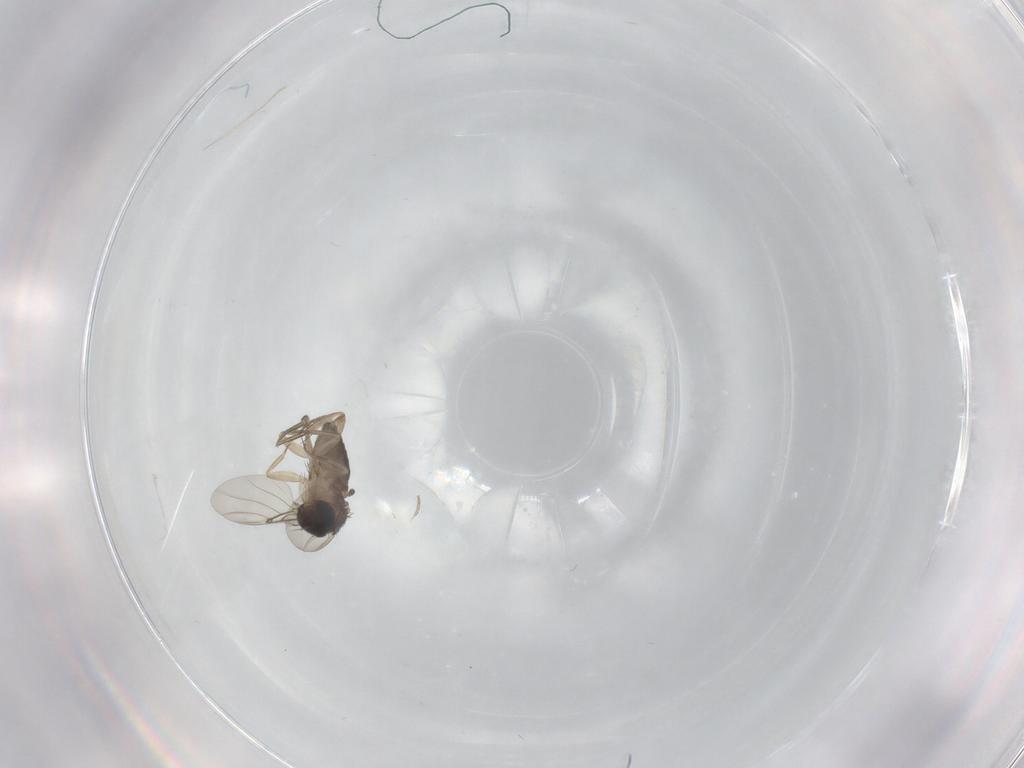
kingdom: Animalia
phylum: Arthropoda
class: Insecta
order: Diptera
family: Phoridae
